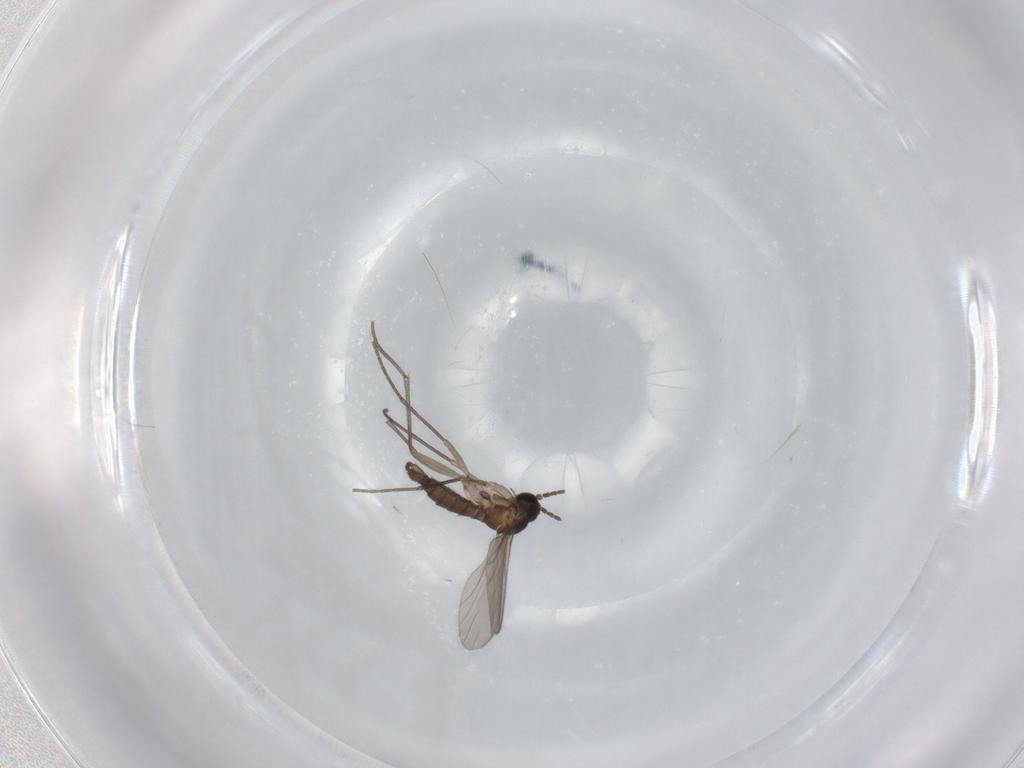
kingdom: Animalia
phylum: Arthropoda
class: Insecta
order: Diptera
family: Sciaridae
